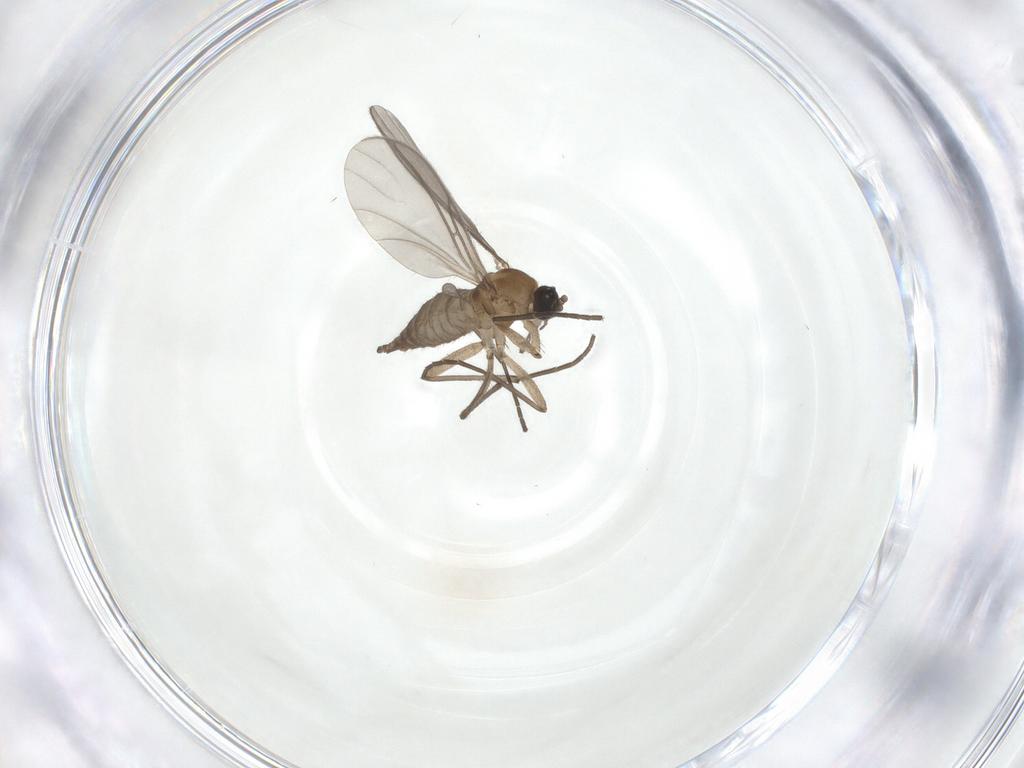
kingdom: Animalia
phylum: Arthropoda
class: Insecta
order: Diptera
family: Sciaridae
